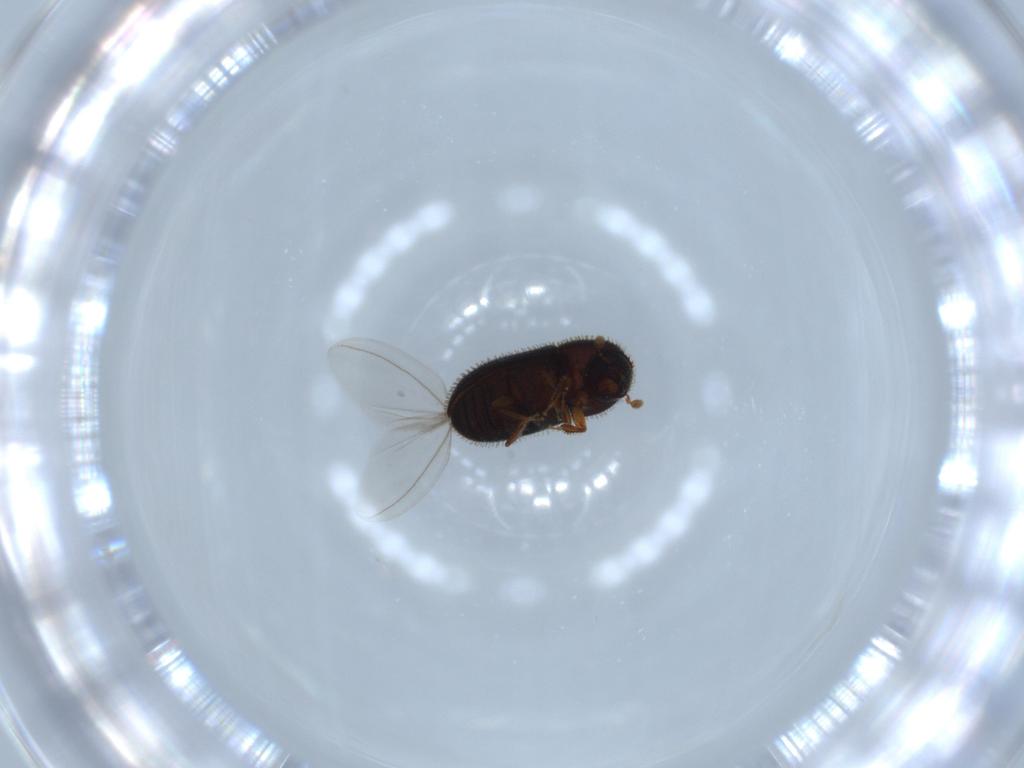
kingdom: Animalia
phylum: Arthropoda
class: Insecta
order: Coleoptera
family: Curculionidae
